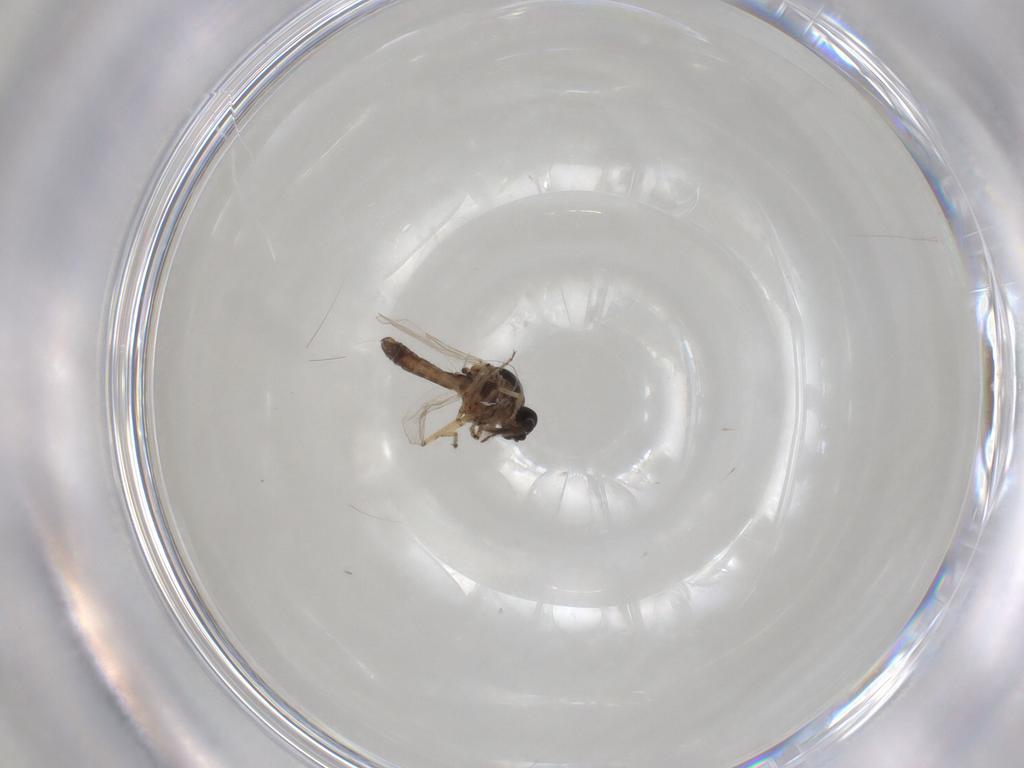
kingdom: Animalia
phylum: Arthropoda
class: Insecta
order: Diptera
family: Ceratopogonidae
